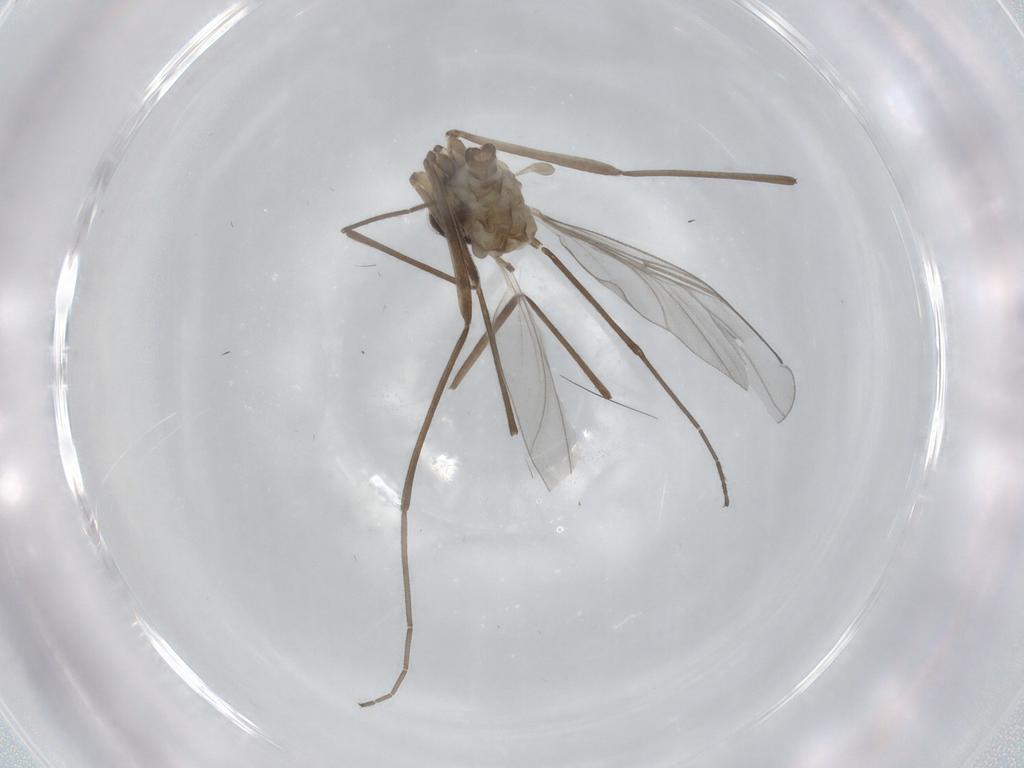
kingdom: Animalia
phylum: Arthropoda
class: Insecta
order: Diptera
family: Cecidomyiidae
